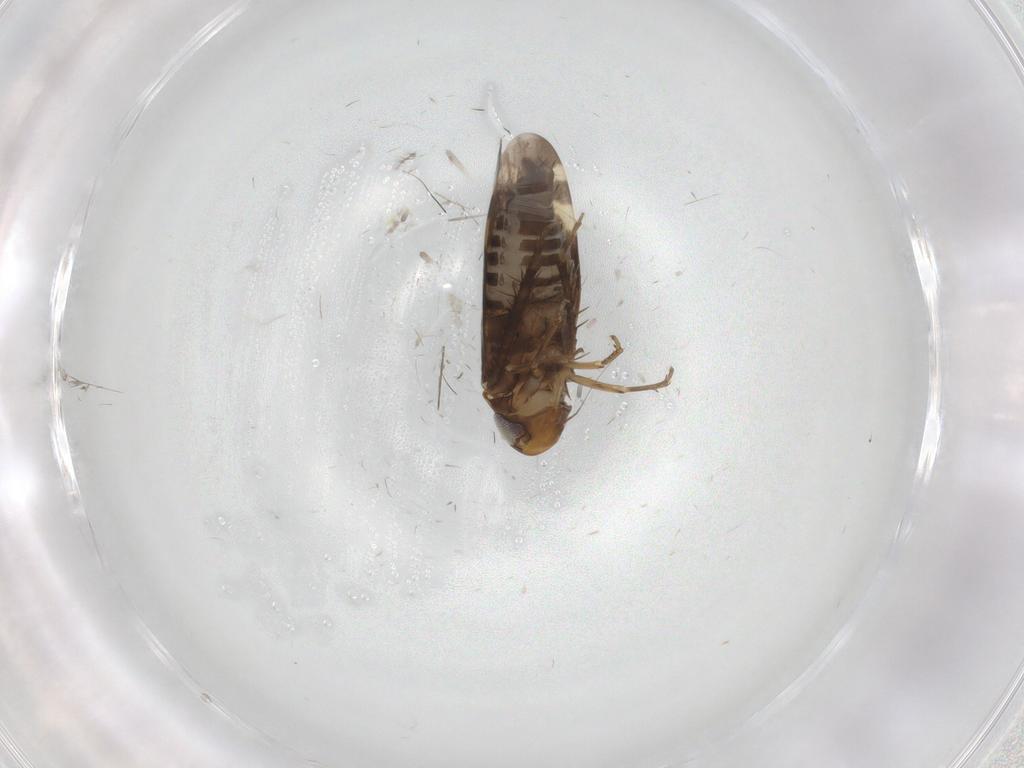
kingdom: Animalia
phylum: Arthropoda
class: Insecta
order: Hemiptera
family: Cicadellidae
